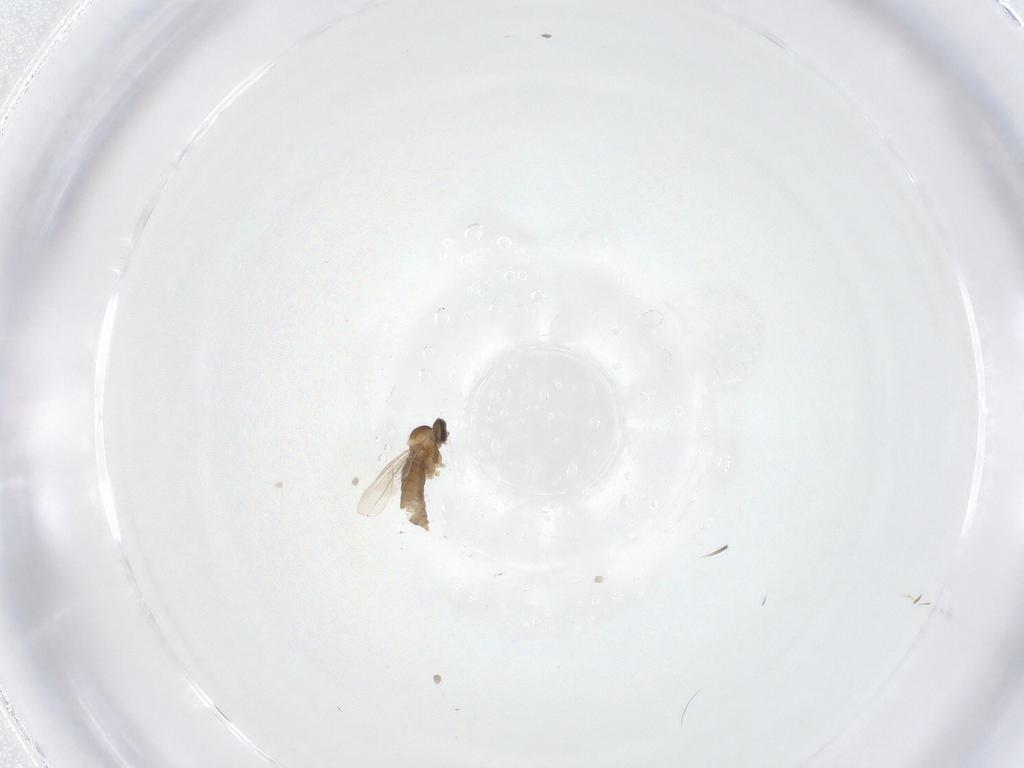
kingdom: Animalia
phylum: Arthropoda
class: Insecta
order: Diptera
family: Cecidomyiidae
